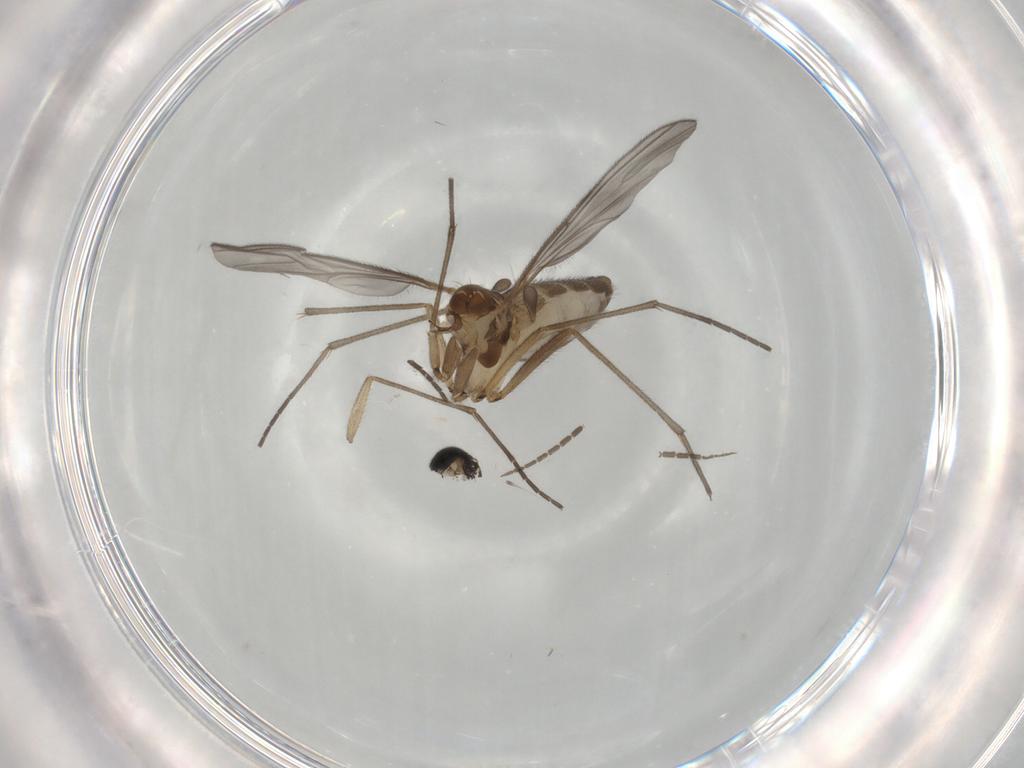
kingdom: Animalia
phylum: Arthropoda
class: Insecta
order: Diptera
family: Sciaridae
